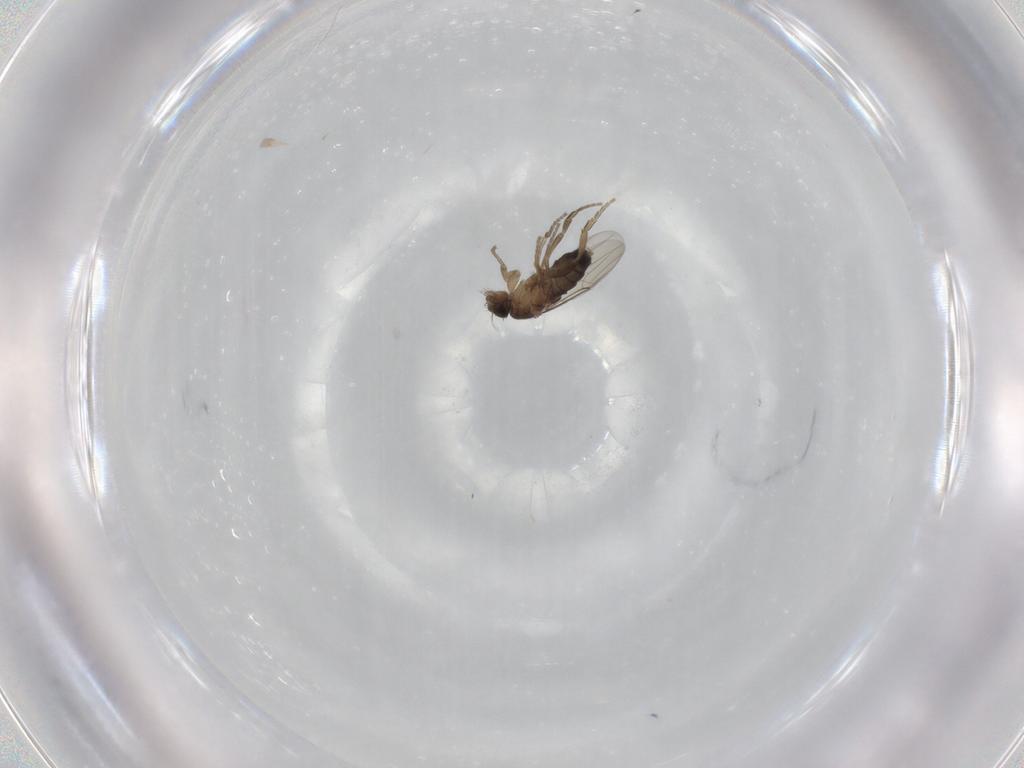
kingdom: Animalia
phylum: Arthropoda
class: Insecta
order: Diptera
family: Phoridae
